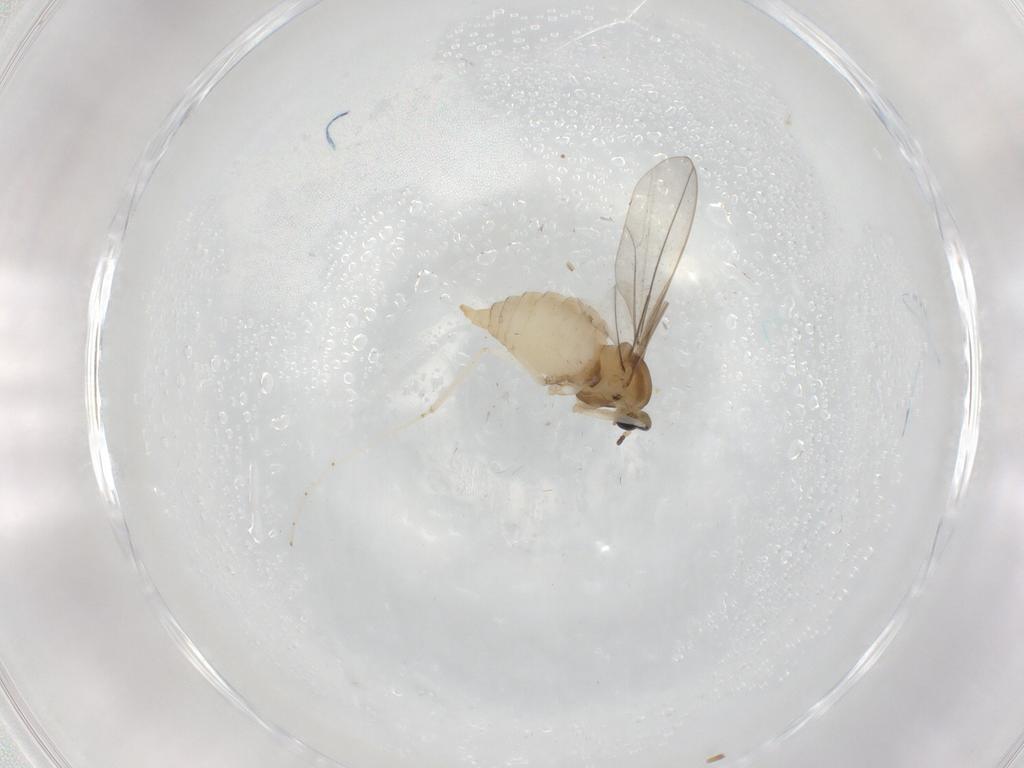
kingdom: Animalia
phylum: Arthropoda
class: Insecta
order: Diptera
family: Cecidomyiidae
